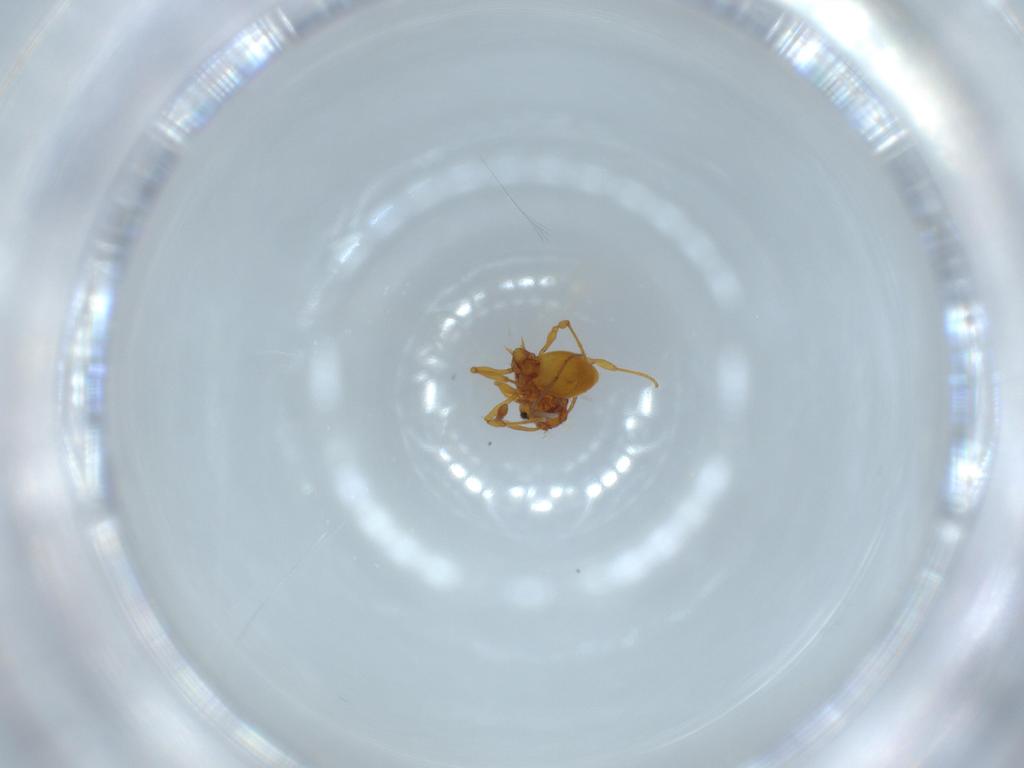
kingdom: Animalia
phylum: Arthropoda
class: Insecta
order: Hymenoptera
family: Formicidae
